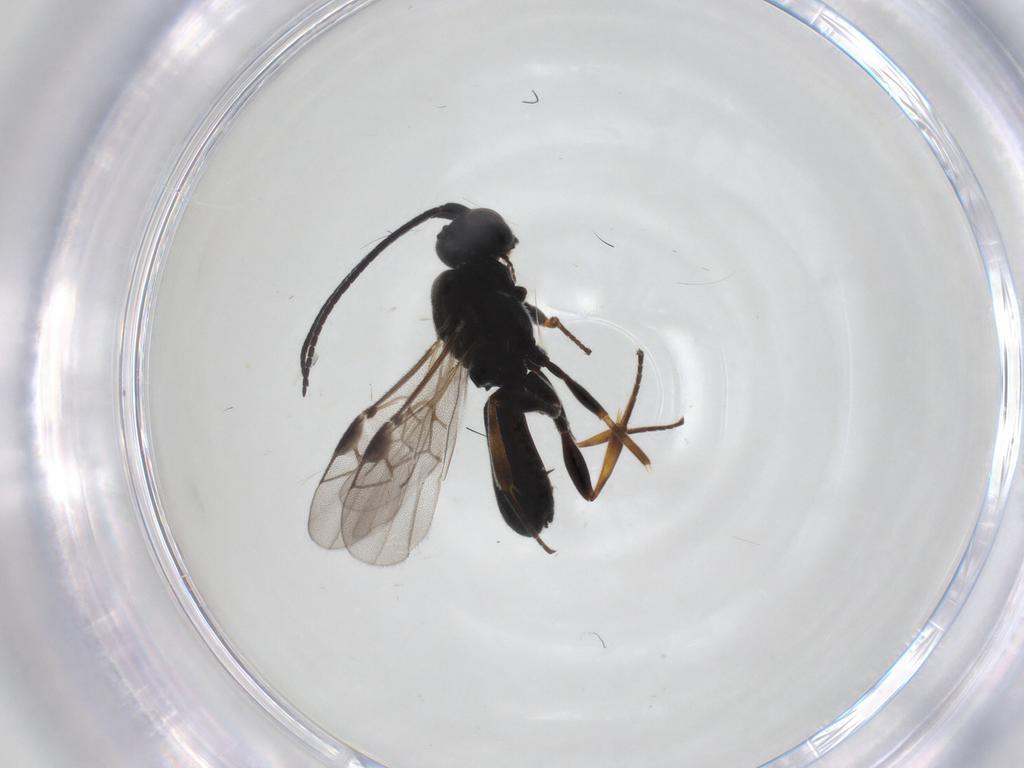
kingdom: Animalia
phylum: Arthropoda
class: Insecta
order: Hymenoptera
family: Braconidae
